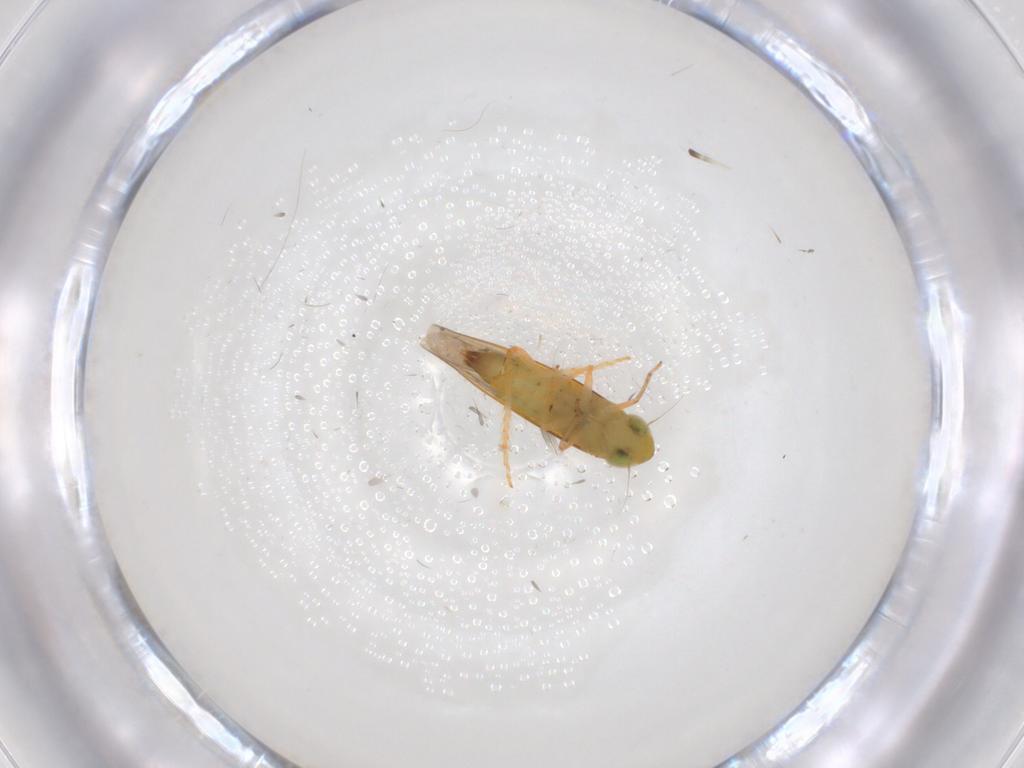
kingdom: Animalia
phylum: Arthropoda
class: Insecta
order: Hemiptera
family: Cicadellidae
